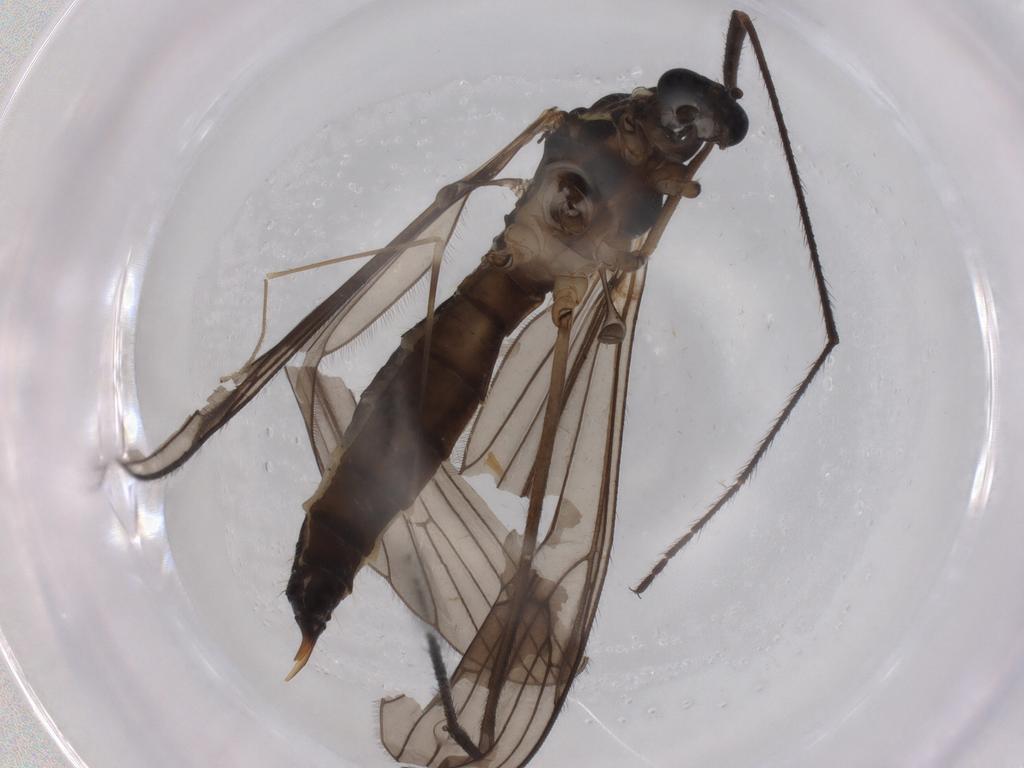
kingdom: Animalia
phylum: Arthropoda
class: Insecta
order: Diptera
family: Limoniidae
